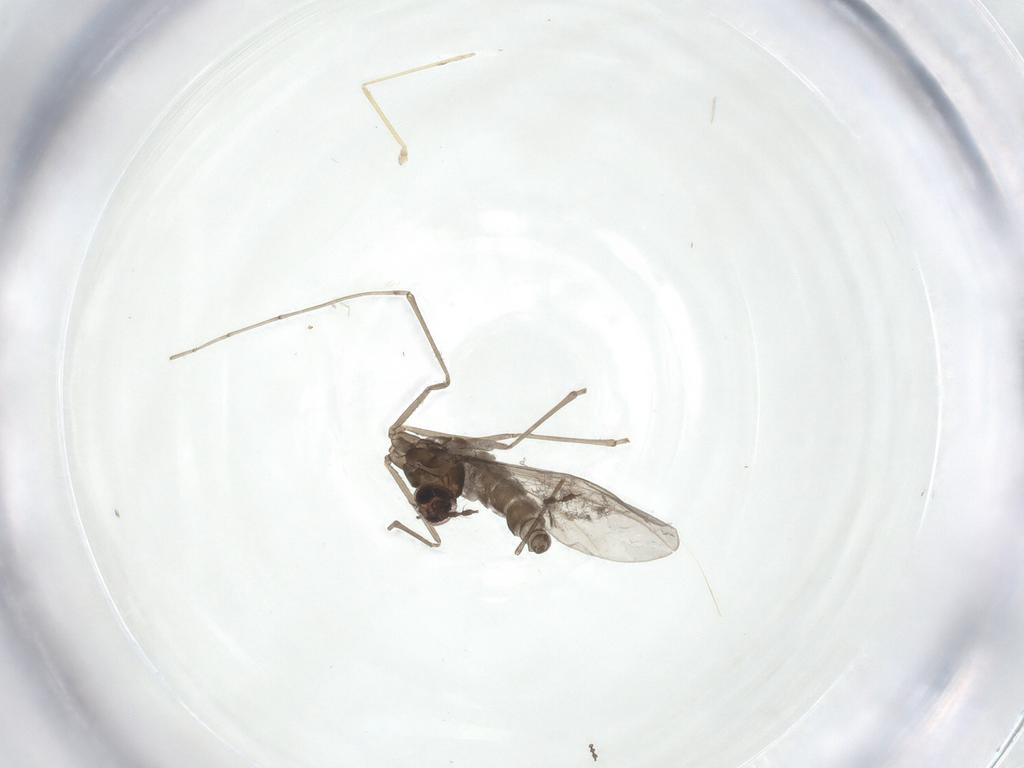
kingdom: Animalia
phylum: Arthropoda
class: Insecta
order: Diptera
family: Cecidomyiidae
